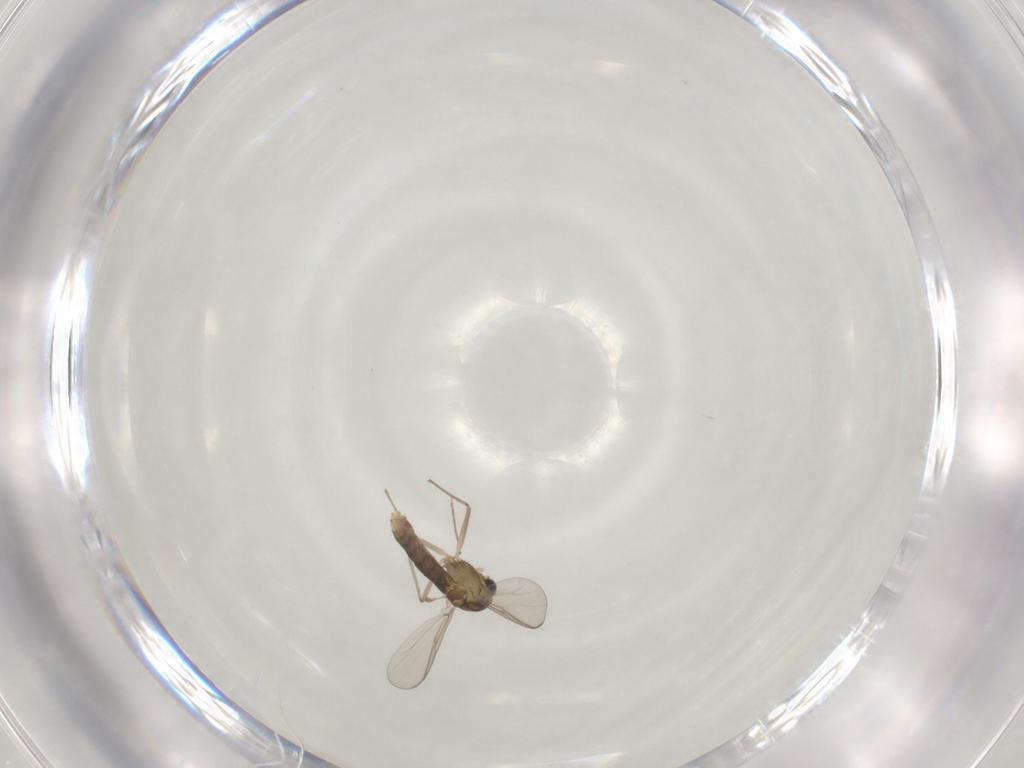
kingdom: Animalia
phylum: Arthropoda
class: Insecta
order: Diptera
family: Chironomidae
